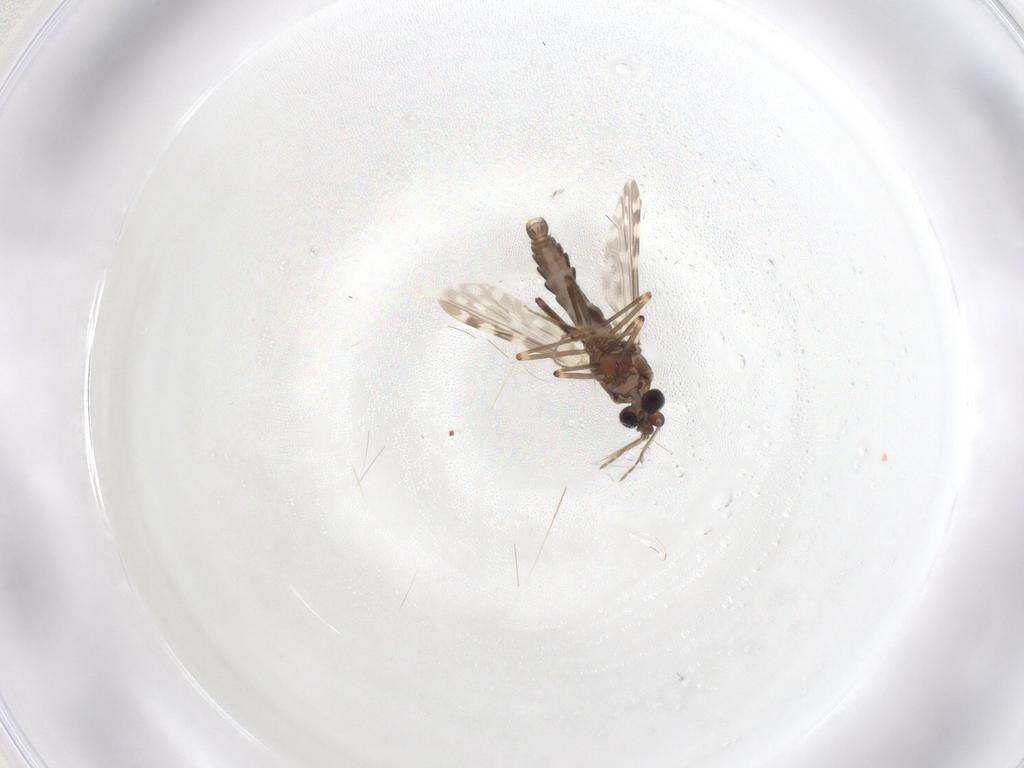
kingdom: Animalia
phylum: Arthropoda
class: Insecta
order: Diptera
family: Ceratopogonidae
